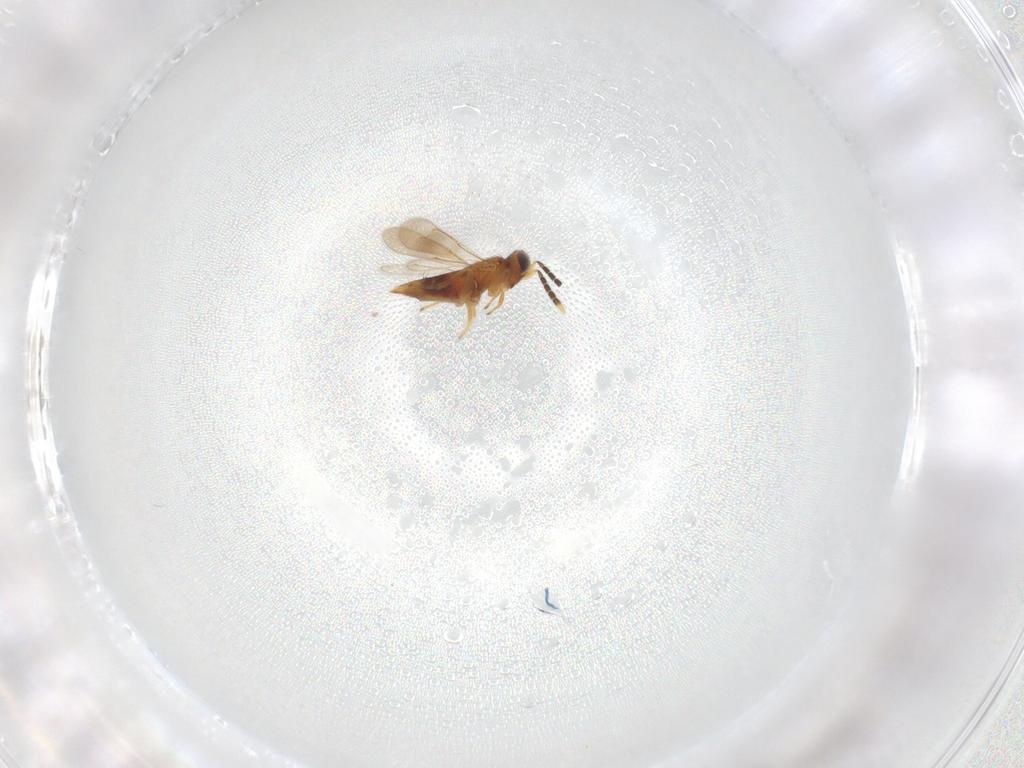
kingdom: Animalia
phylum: Arthropoda
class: Insecta
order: Hymenoptera
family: Aphelinidae
